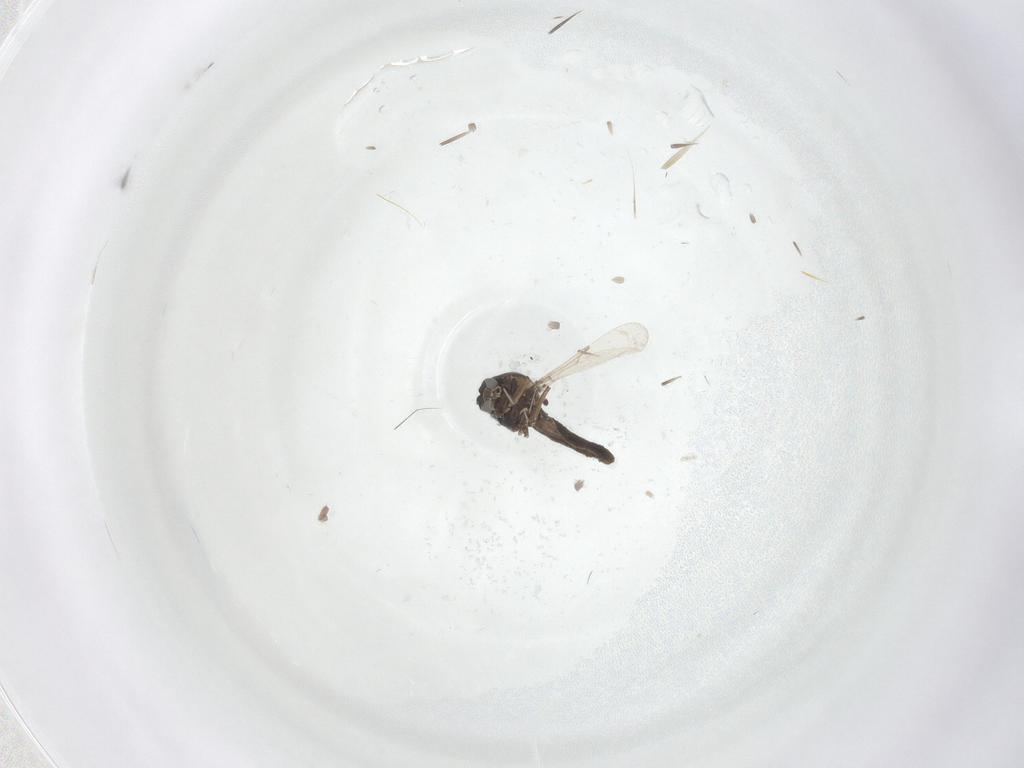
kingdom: Animalia
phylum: Arthropoda
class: Insecta
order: Diptera
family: Ceratopogonidae
